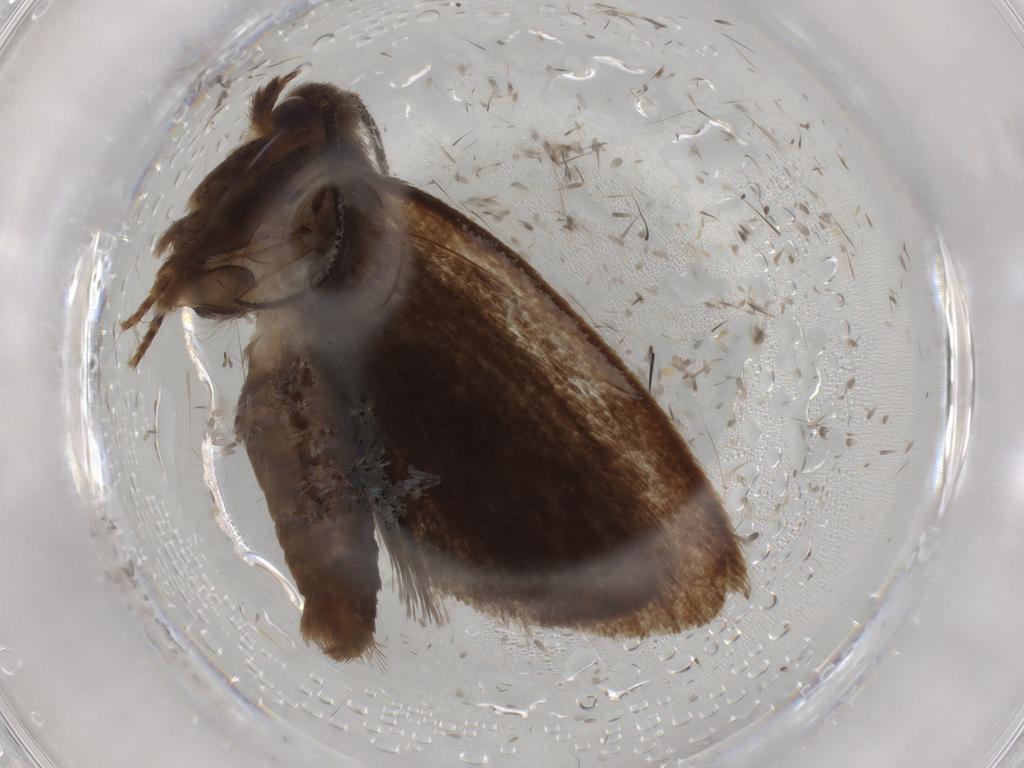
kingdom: Animalia
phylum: Arthropoda
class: Insecta
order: Lepidoptera
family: Tineidae
